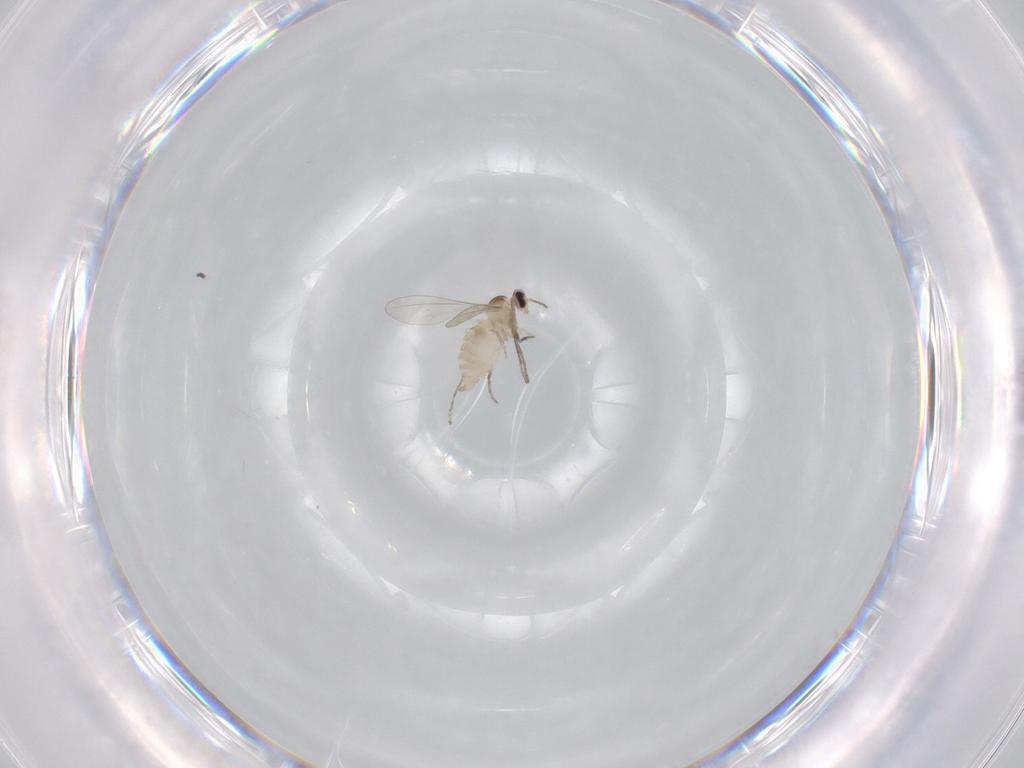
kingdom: Animalia
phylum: Arthropoda
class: Insecta
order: Diptera
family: Cecidomyiidae
